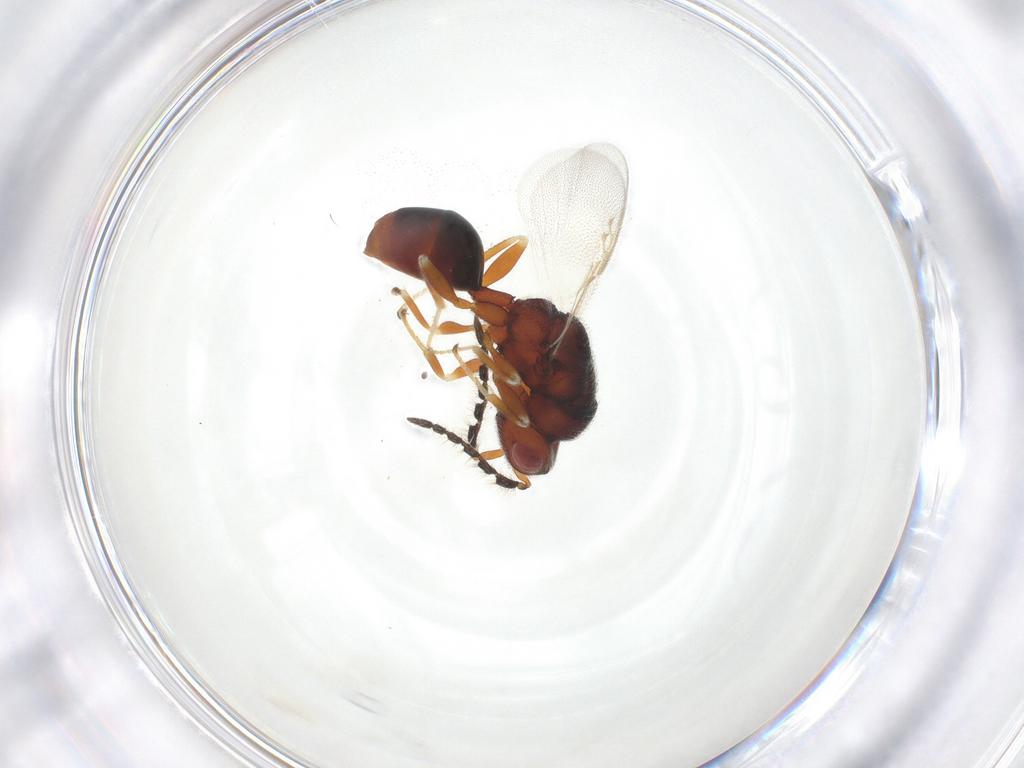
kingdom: Animalia
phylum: Arthropoda
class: Insecta
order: Hymenoptera
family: Eurytomidae
